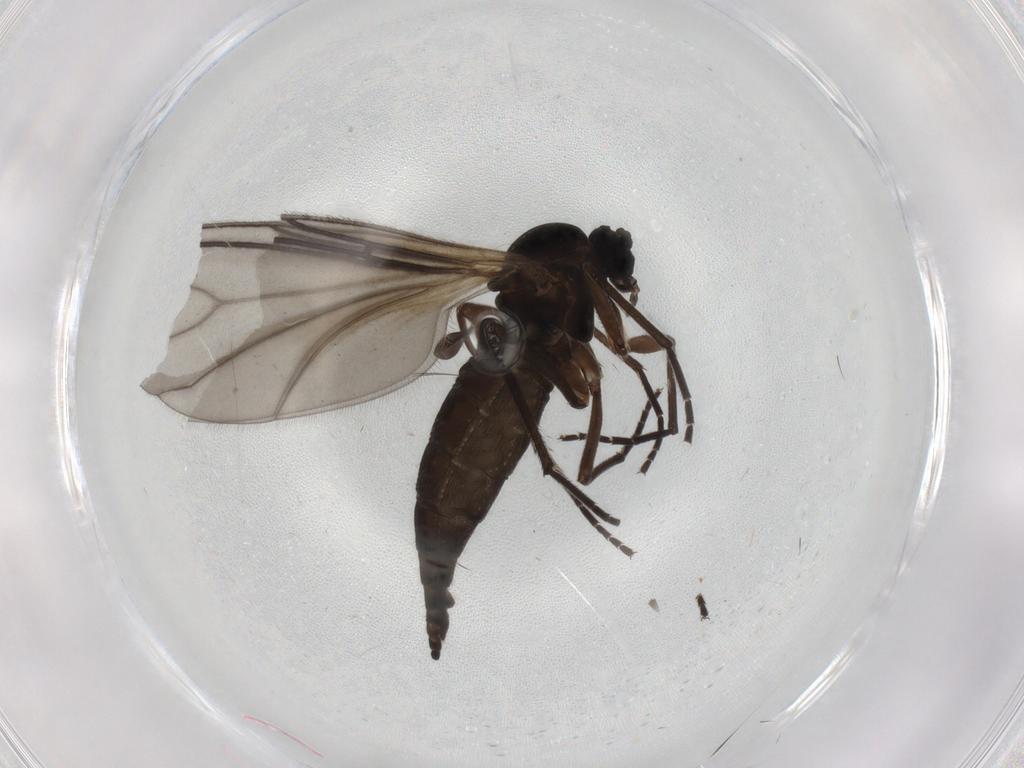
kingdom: Animalia
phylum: Arthropoda
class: Insecta
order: Diptera
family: Sciaridae
